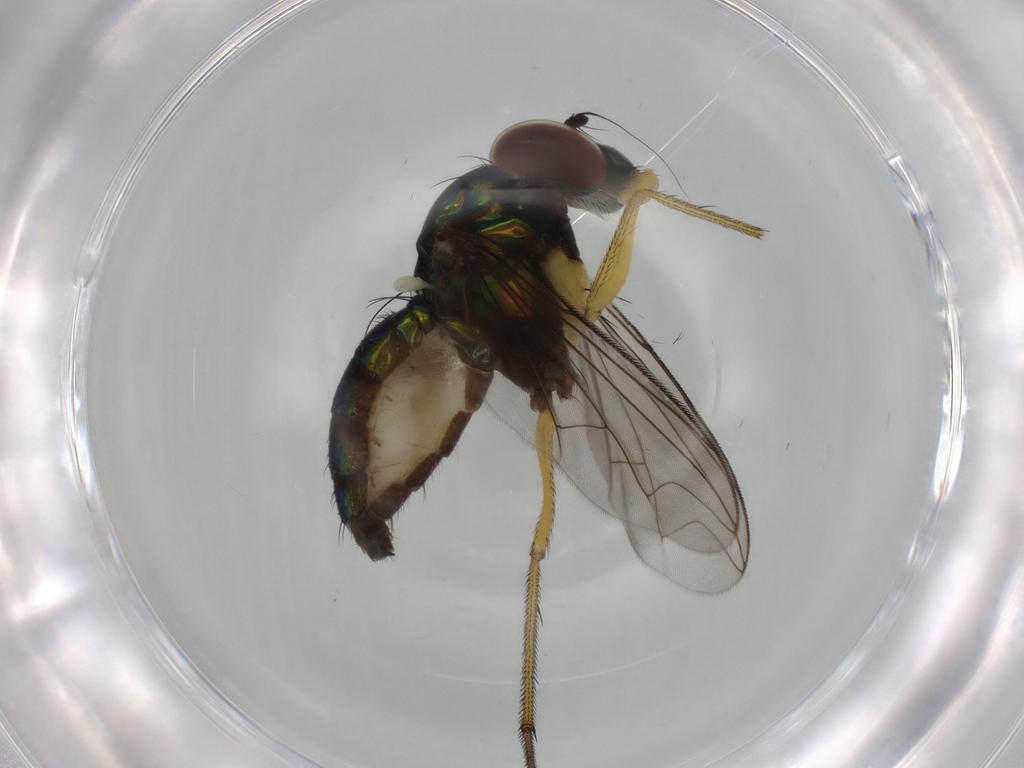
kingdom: Animalia
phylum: Arthropoda
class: Insecta
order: Diptera
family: Dolichopodidae
